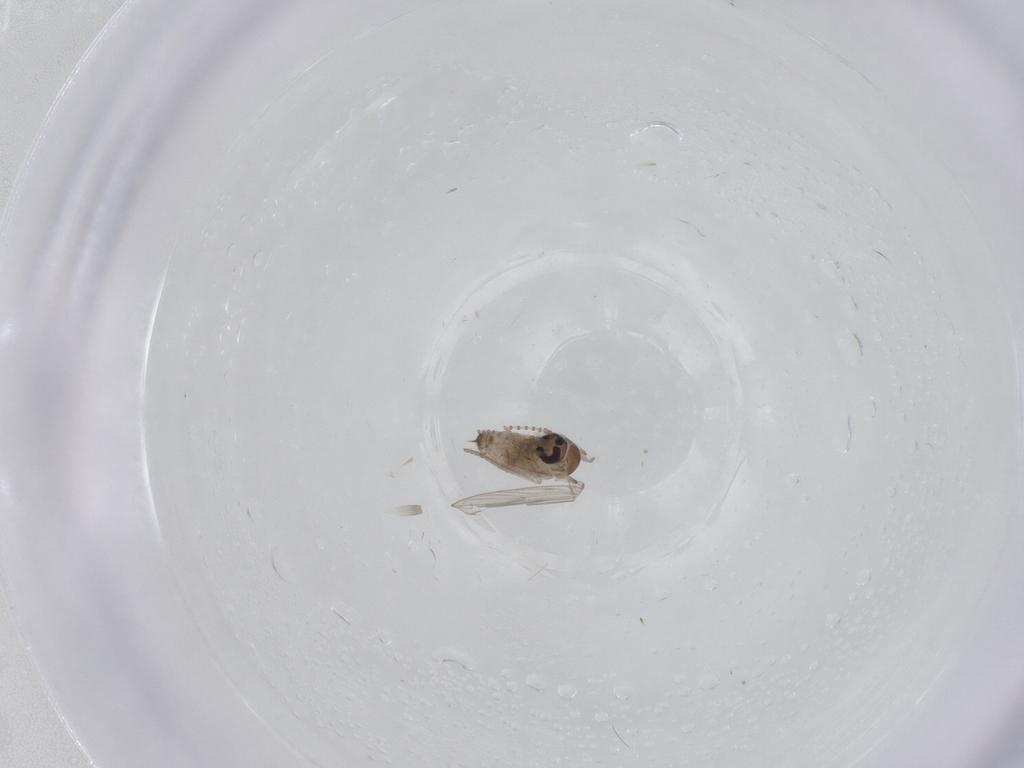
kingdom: Animalia
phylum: Arthropoda
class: Insecta
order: Diptera
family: Psychodidae
